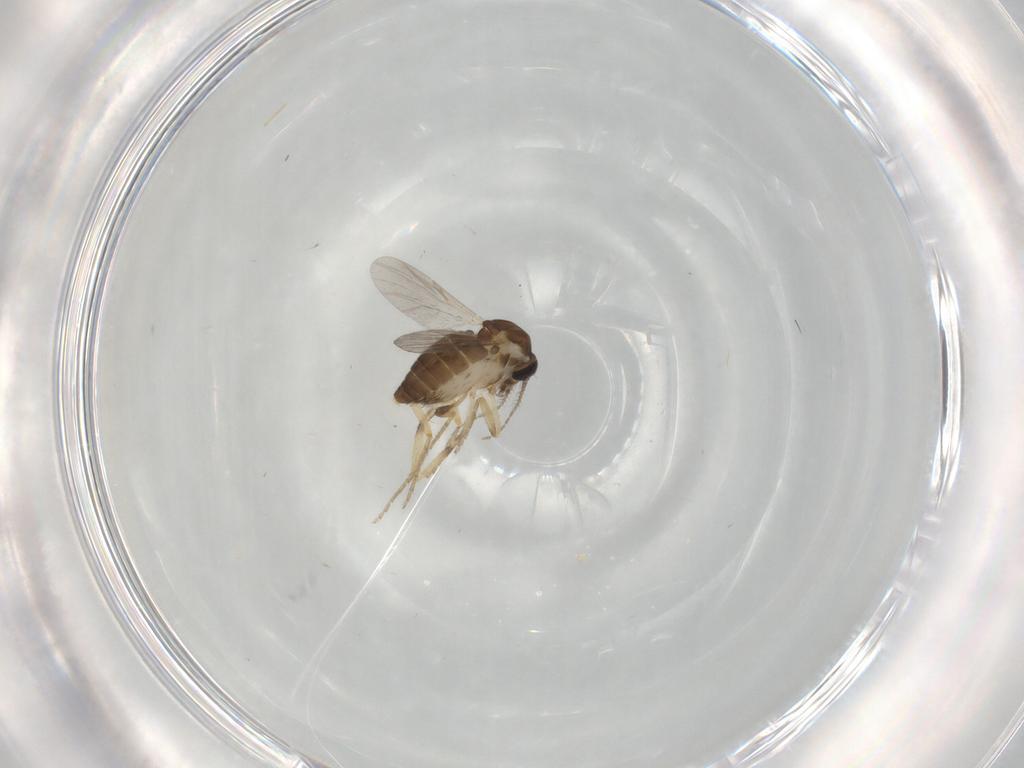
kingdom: Animalia
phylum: Arthropoda
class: Insecta
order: Diptera
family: Ceratopogonidae
